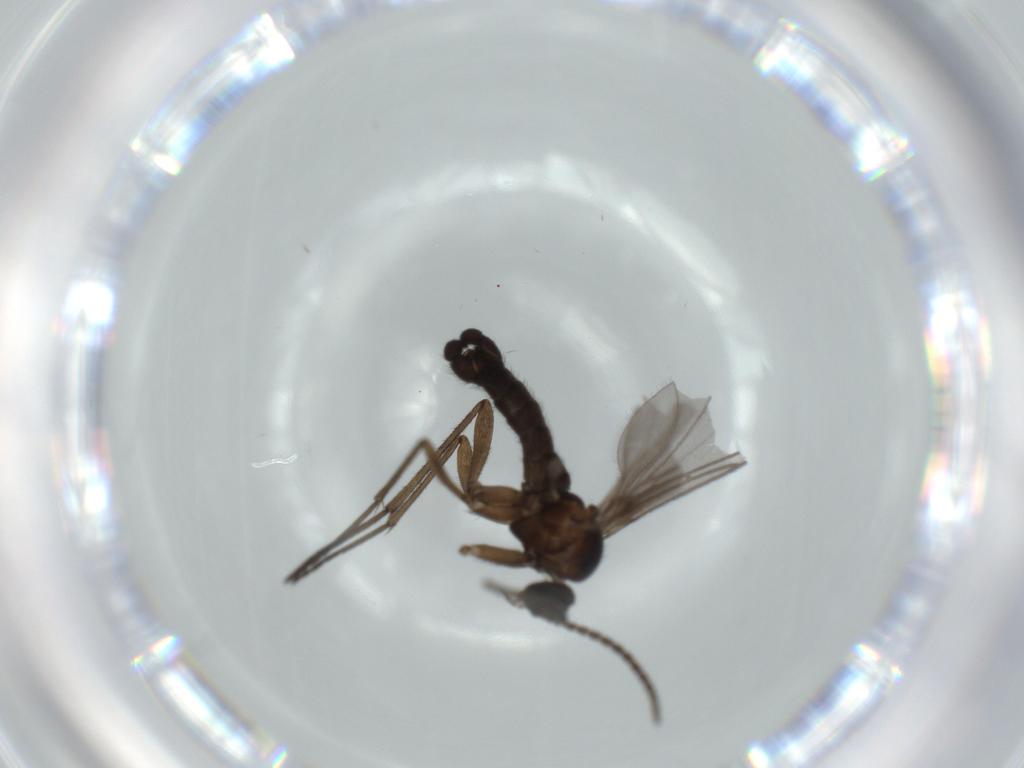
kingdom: Animalia
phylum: Arthropoda
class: Insecta
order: Diptera
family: Sciaridae
